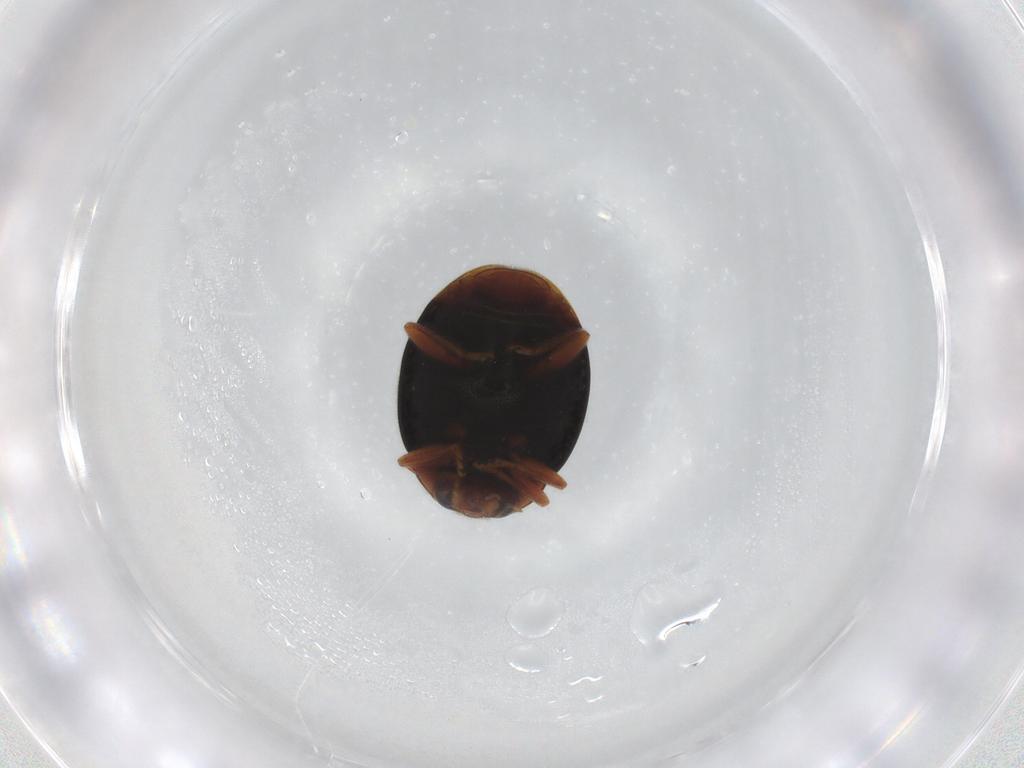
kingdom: Animalia
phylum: Arthropoda
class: Insecta
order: Coleoptera
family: Coccinellidae
